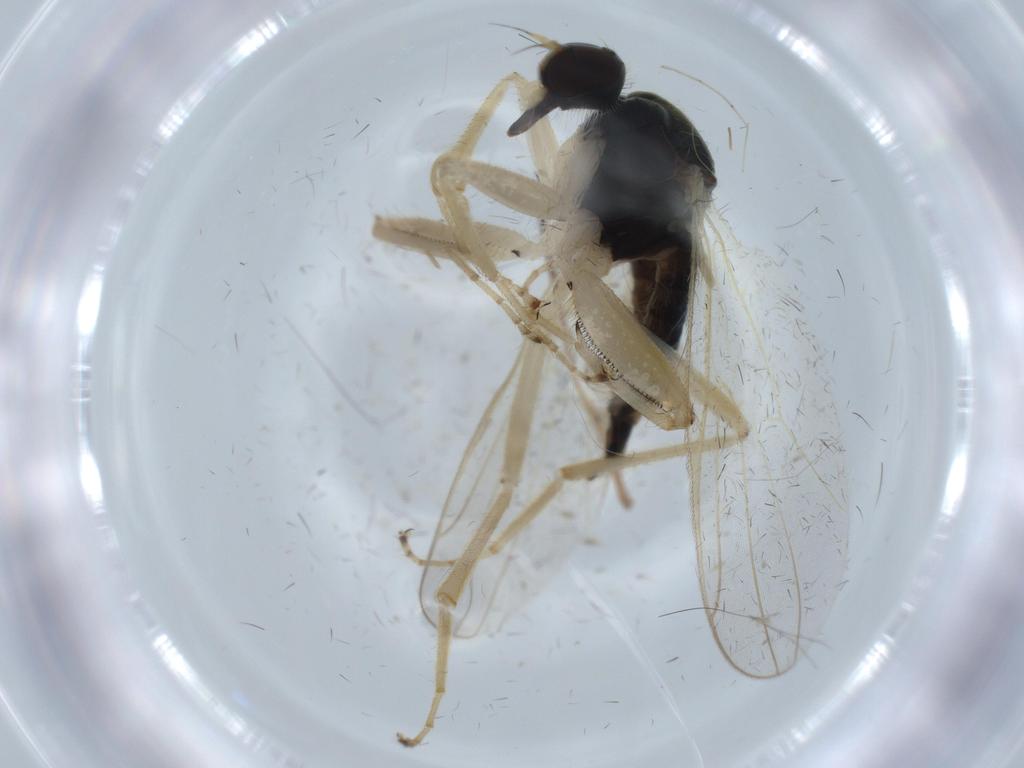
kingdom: Animalia
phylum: Arthropoda
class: Insecta
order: Diptera
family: Hybotidae
